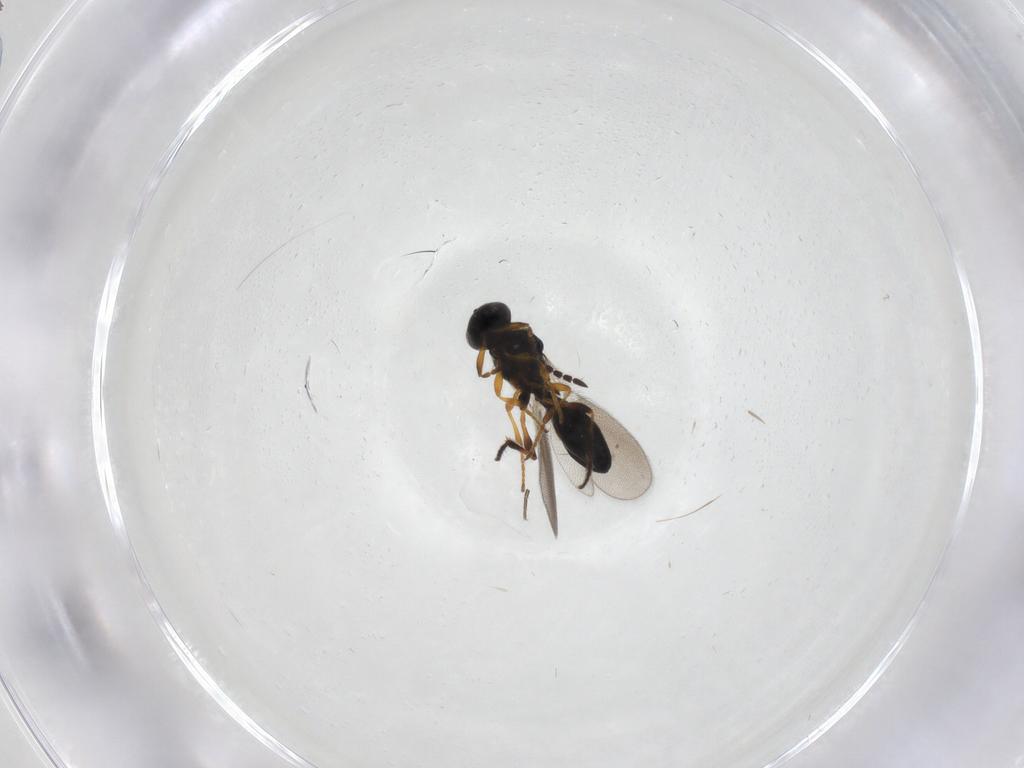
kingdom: Animalia
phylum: Arthropoda
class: Insecta
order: Hymenoptera
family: Platygastridae
